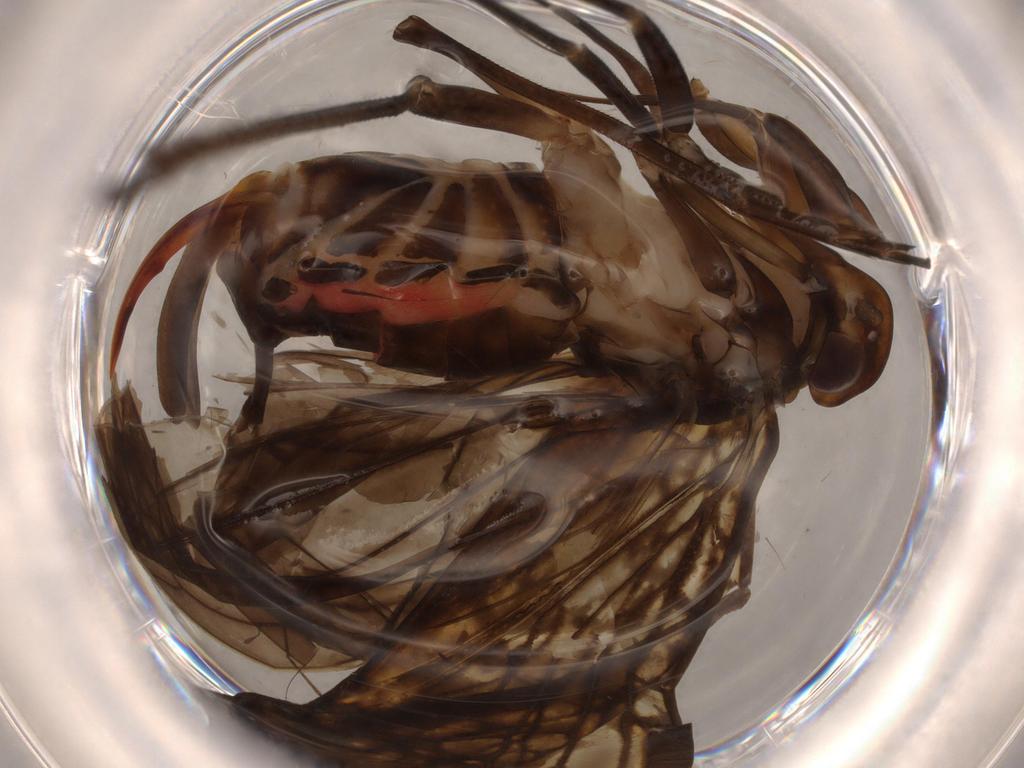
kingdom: Animalia
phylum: Arthropoda
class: Insecta
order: Hemiptera
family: Cixiidae
